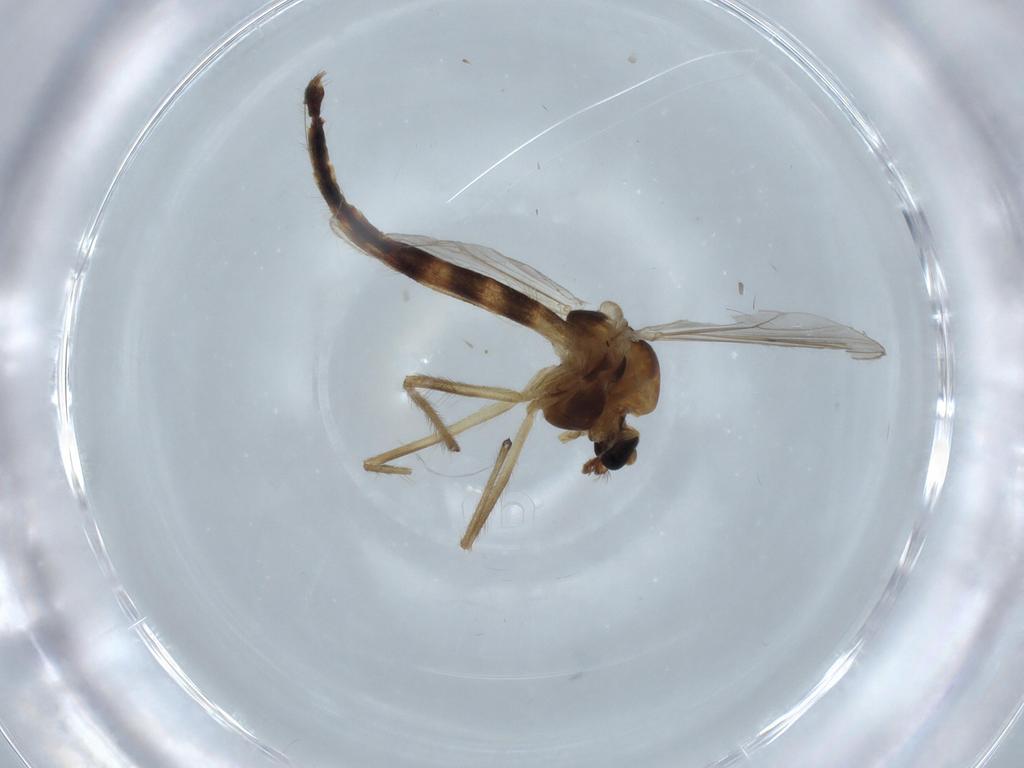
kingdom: Animalia
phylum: Arthropoda
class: Insecta
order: Diptera
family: Chironomidae
